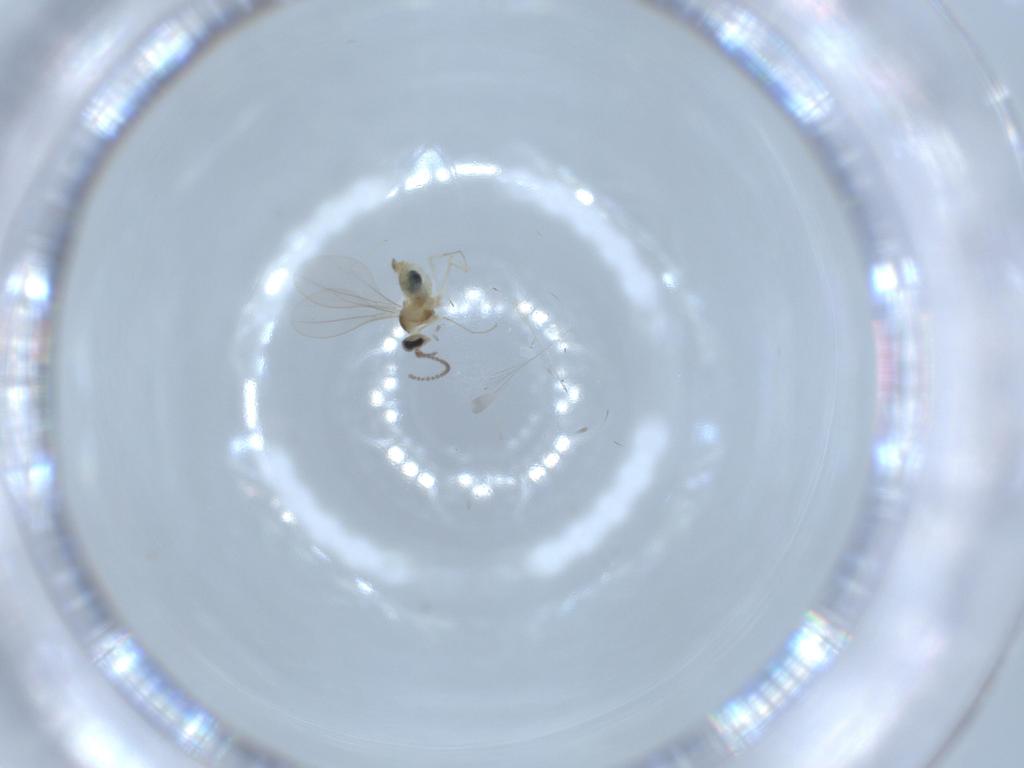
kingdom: Animalia
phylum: Arthropoda
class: Insecta
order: Diptera
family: Cecidomyiidae
